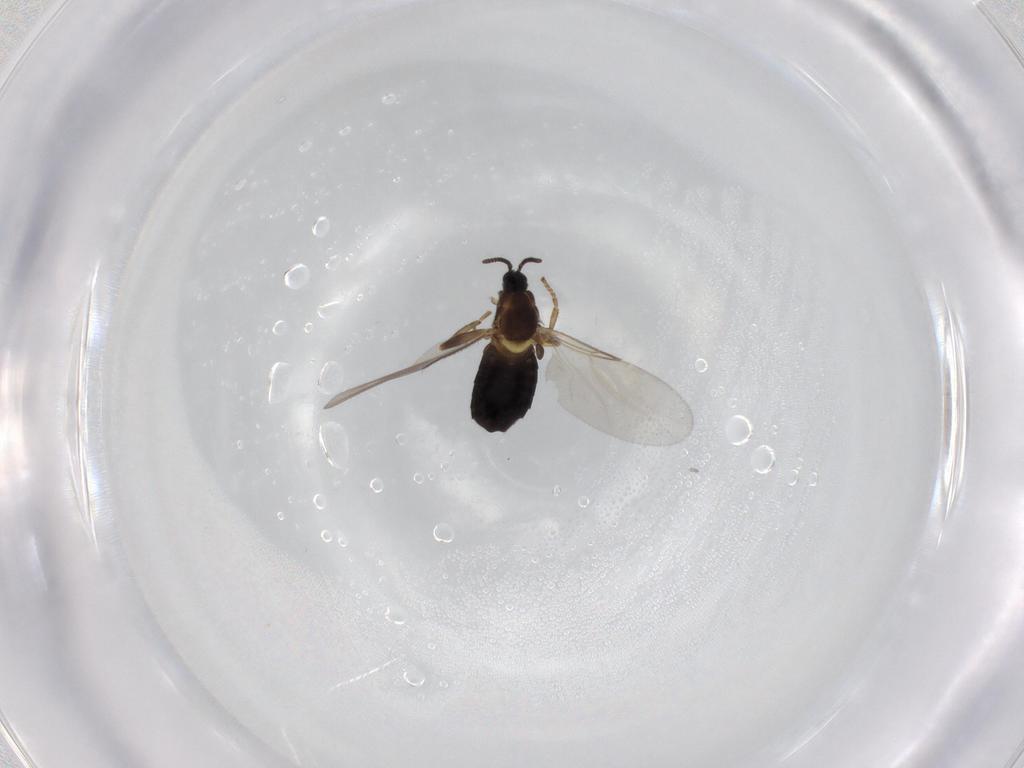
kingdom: Animalia
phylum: Arthropoda
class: Insecta
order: Diptera
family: Scatopsidae
